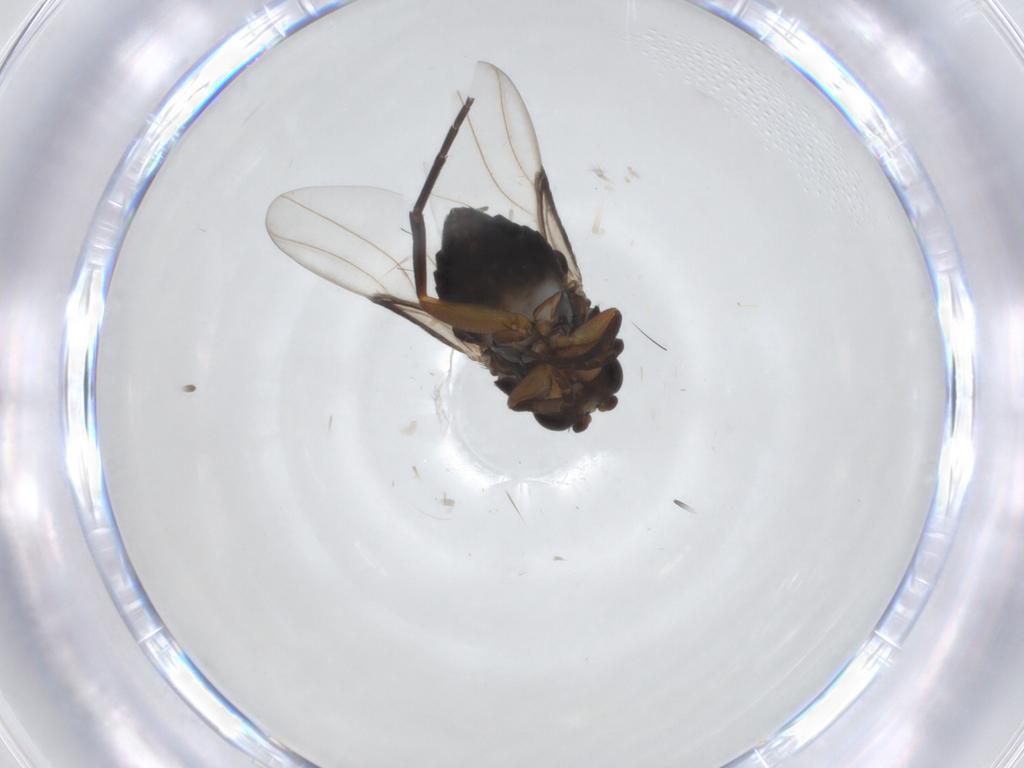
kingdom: Animalia
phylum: Arthropoda
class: Insecta
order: Diptera
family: Phoridae
